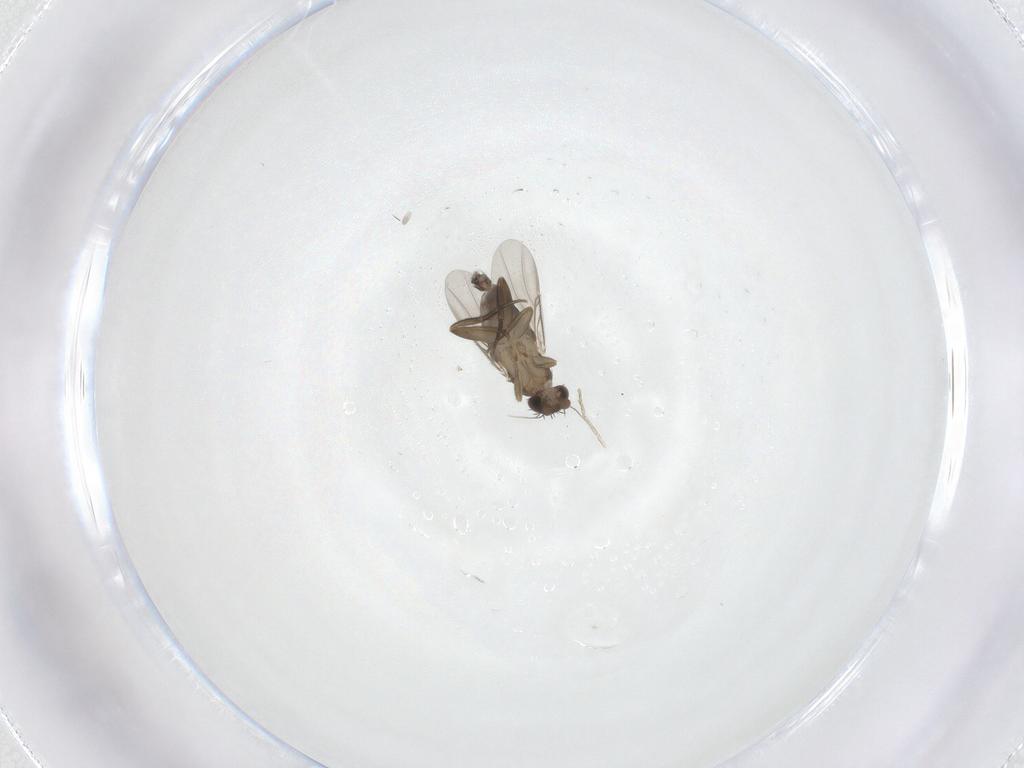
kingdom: Animalia
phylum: Arthropoda
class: Insecta
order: Diptera
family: Phoridae
